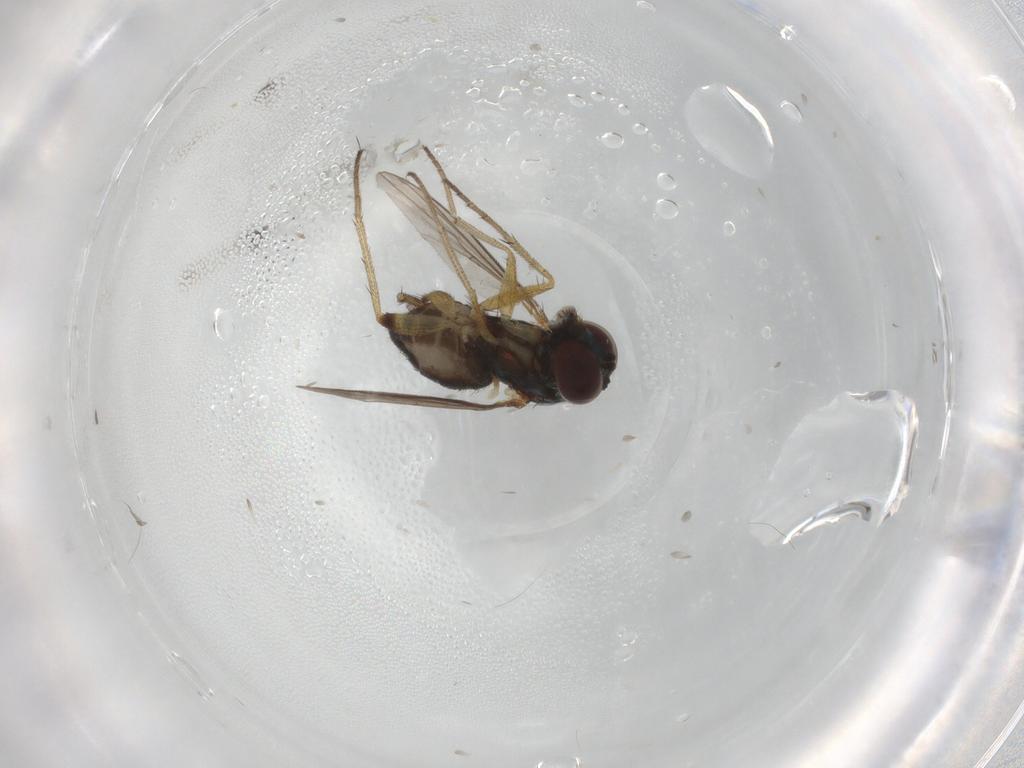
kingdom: Animalia
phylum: Arthropoda
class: Insecta
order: Diptera
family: Dolichopodidae
